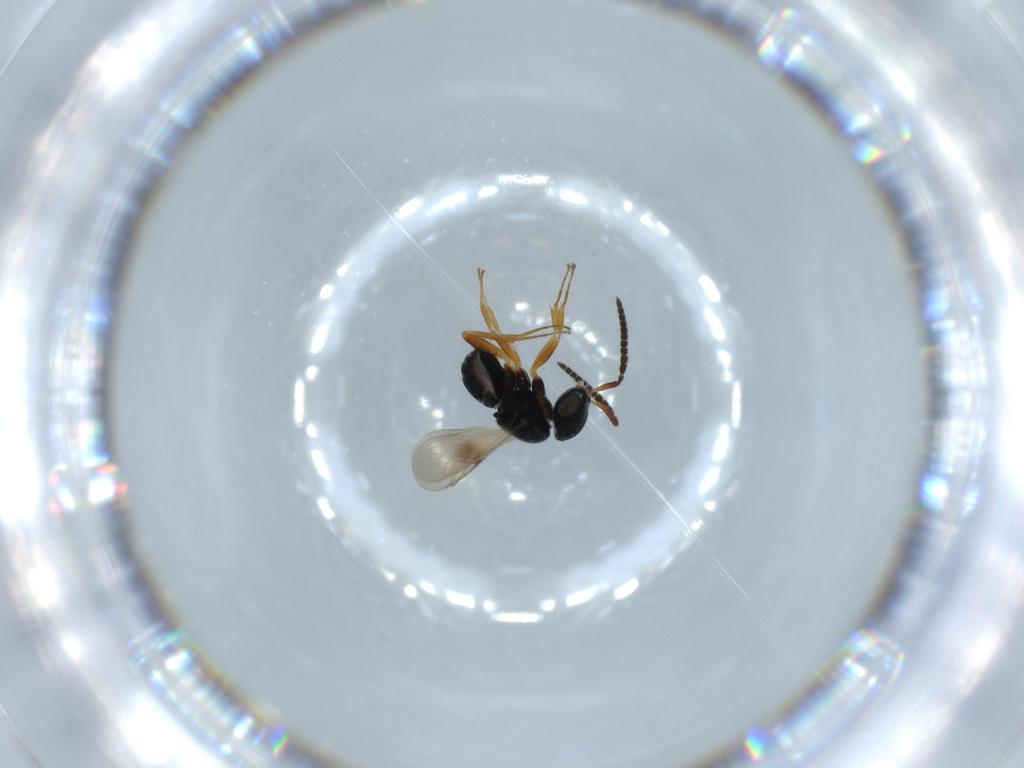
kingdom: Animalia
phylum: Arthropoda
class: Insecta
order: Hymenoptera
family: Scelionidae
